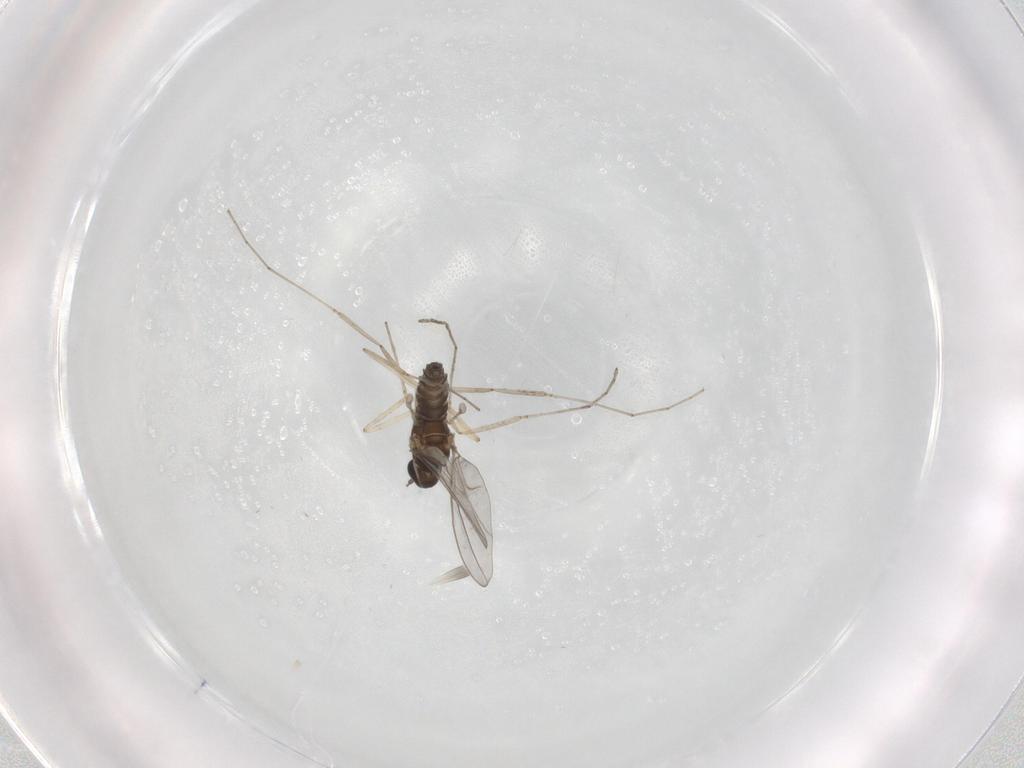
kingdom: Animalia
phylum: Arthropoda
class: Insecta
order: Diptera
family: Cecidomyiidae
